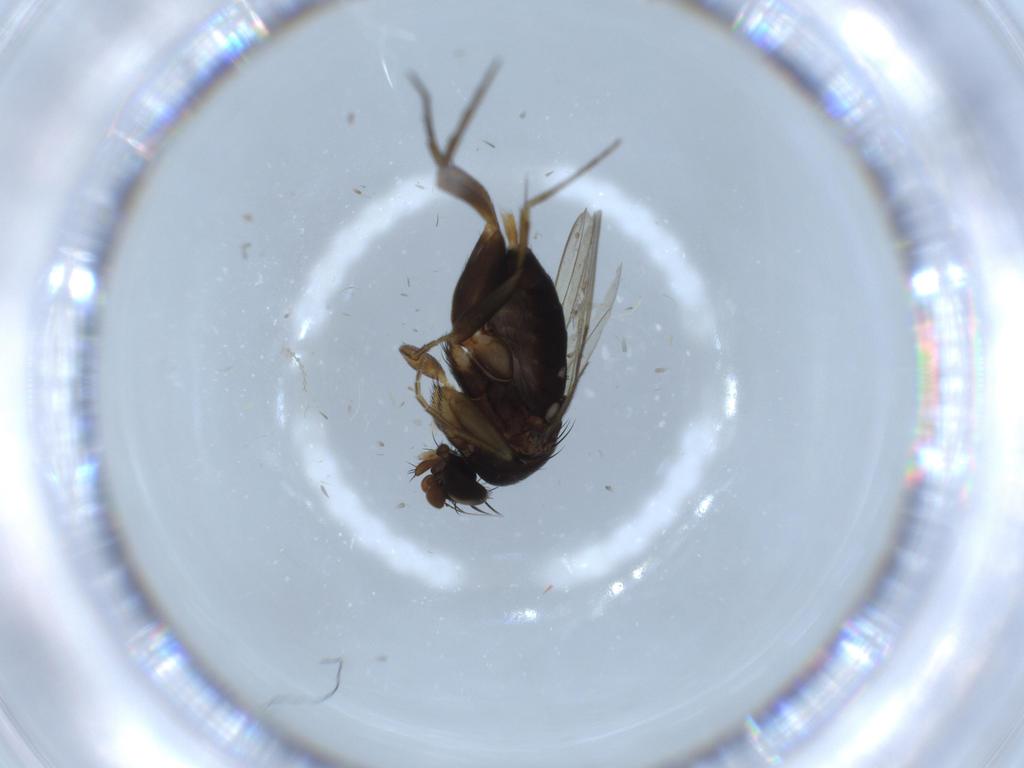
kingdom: Animalia
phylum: Arthropoda
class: Insecta
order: Diptera
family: Phoridae
